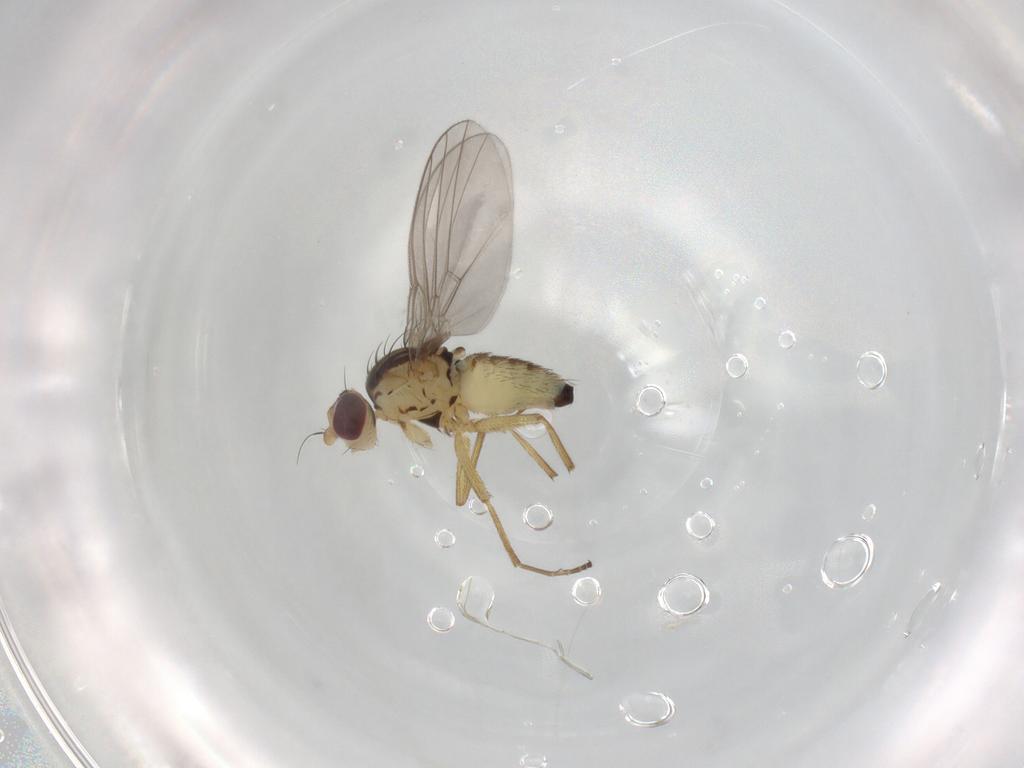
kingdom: Animalia
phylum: Arthropoda
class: Insecta
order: Diptera
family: Agromyzidae
